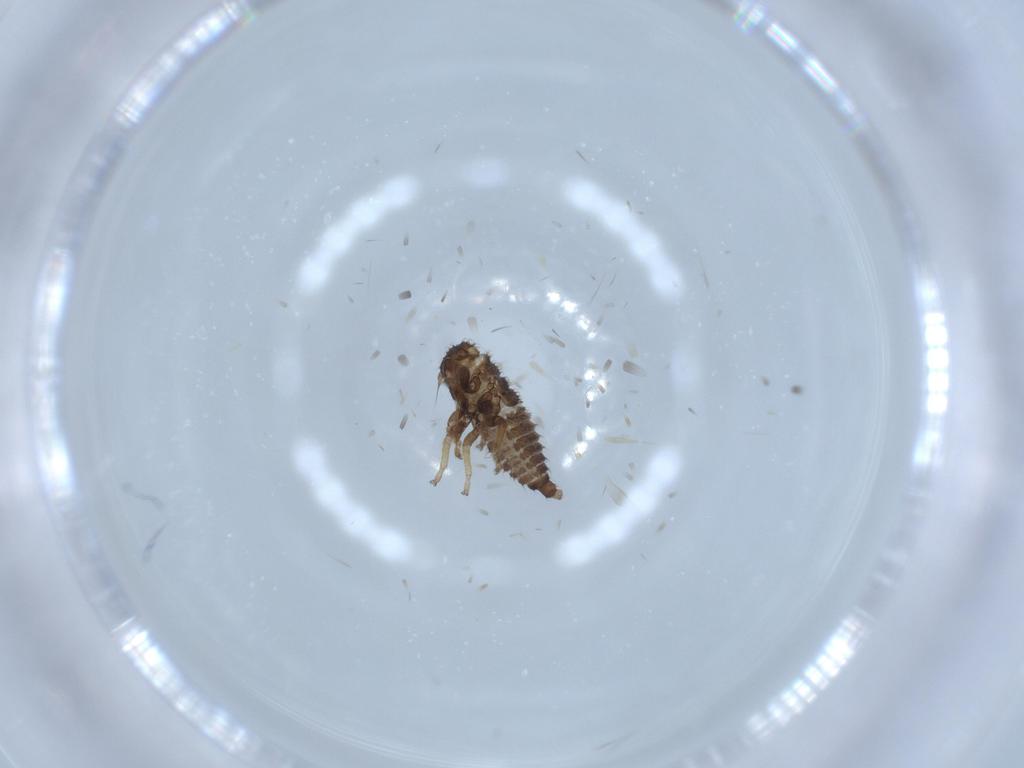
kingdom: Animalia
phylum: Arthropoda
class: Insecta
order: Hemiptera
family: Membracidae
